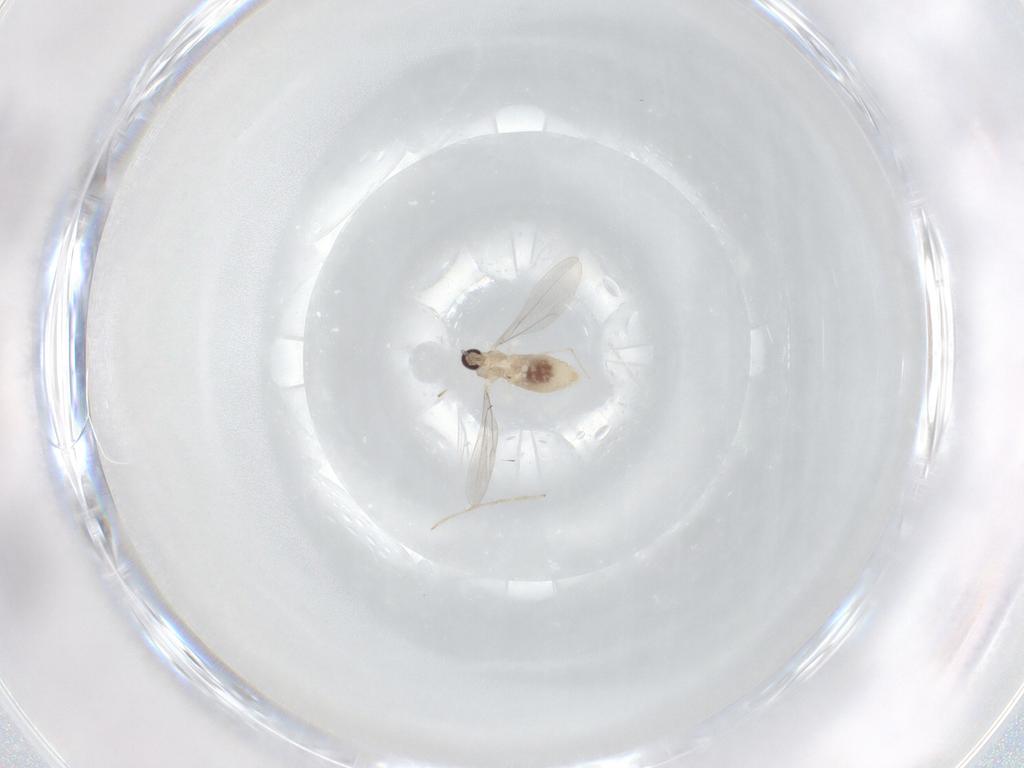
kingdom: Animalia
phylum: Arthropoda
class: Insecta
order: Diptera
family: Cecidomyiidae
